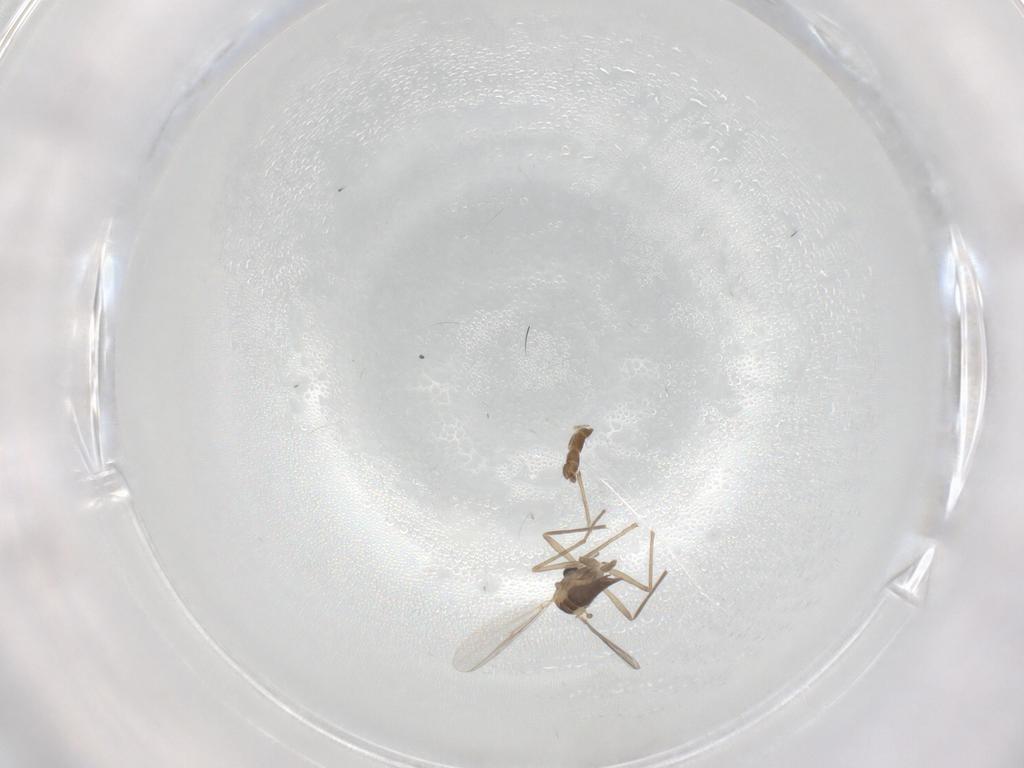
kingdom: Animalia
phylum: Arthropoda
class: Insecta
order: Diptera
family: Chironomidae
